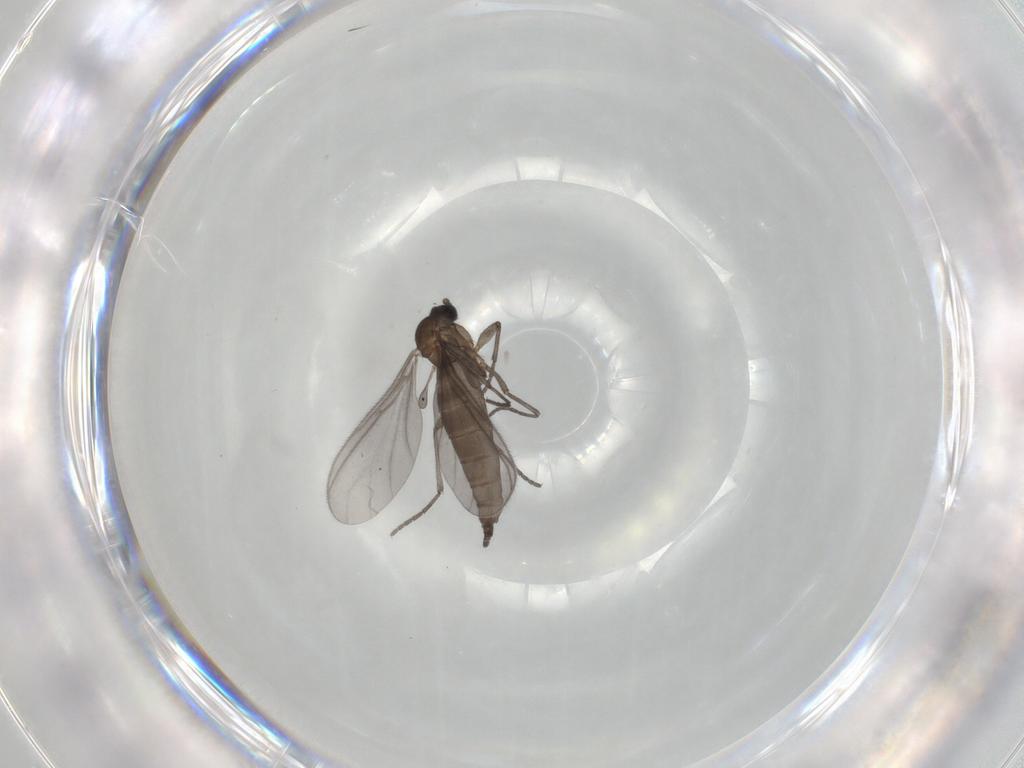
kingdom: Animalia
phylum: Arthropoda
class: Insecta
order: Diptera
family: Sciaridae
